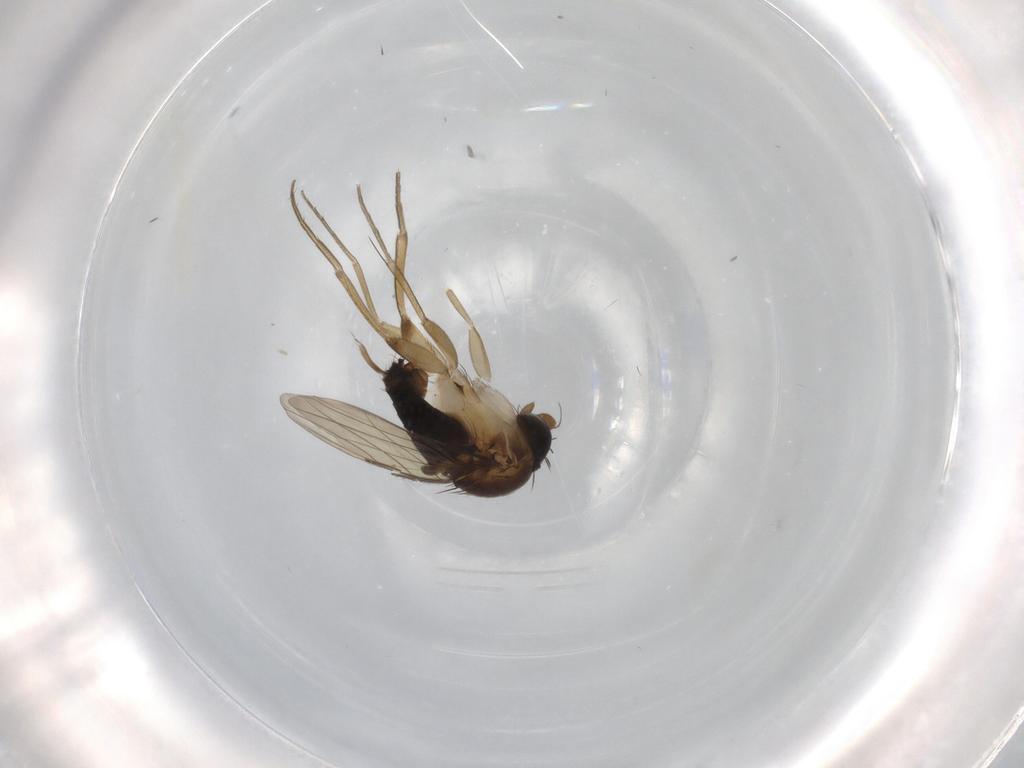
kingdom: Animalia
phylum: Arthropoda
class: Insecta
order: Diptera
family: Phoridae
